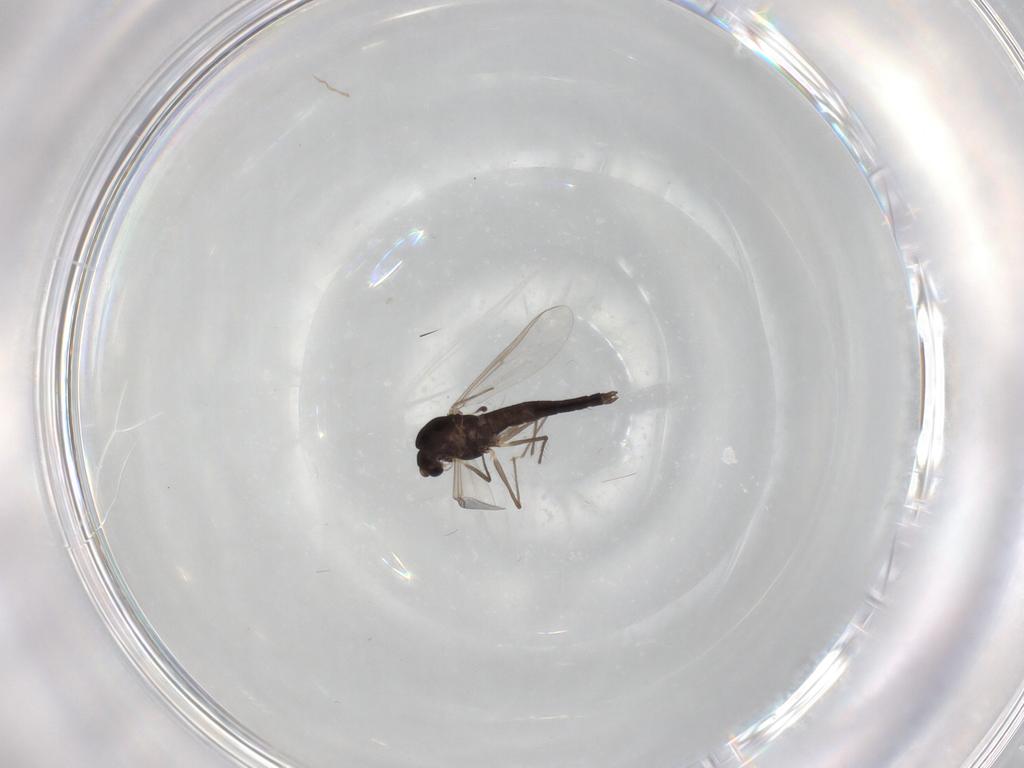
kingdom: Animalia
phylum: Arthropoda
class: Insecta
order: Diptera
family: Chironomidae
